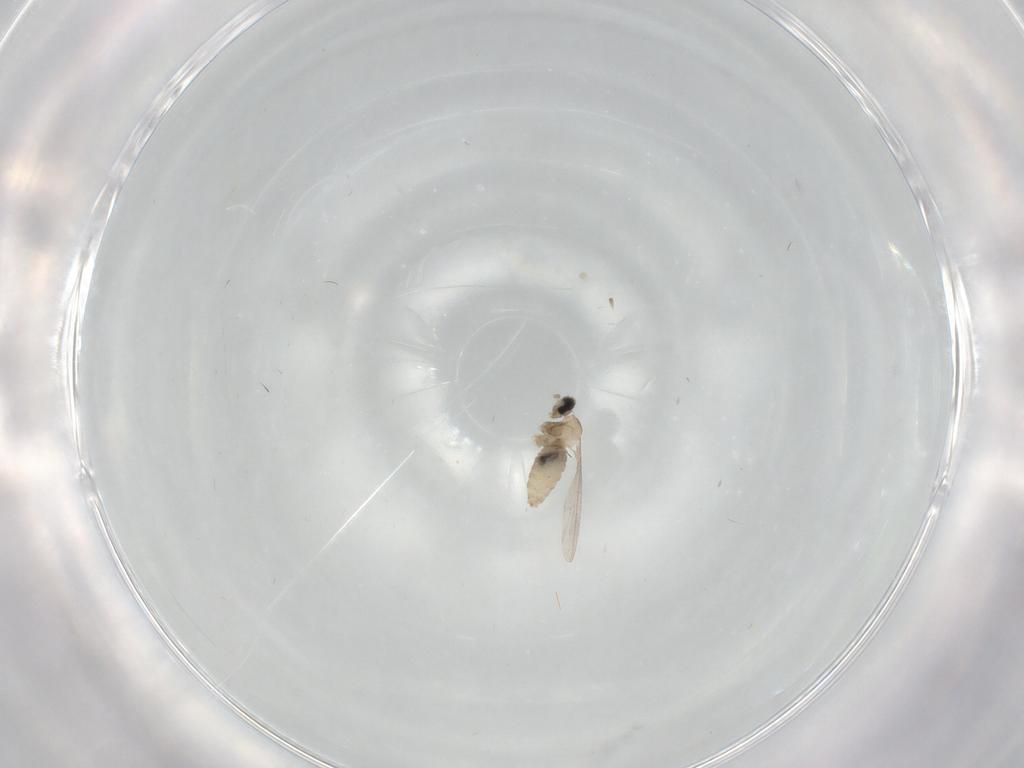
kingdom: Animalia
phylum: Arthropoda
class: Insecta
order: Diptera
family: Cecidomyiidae
